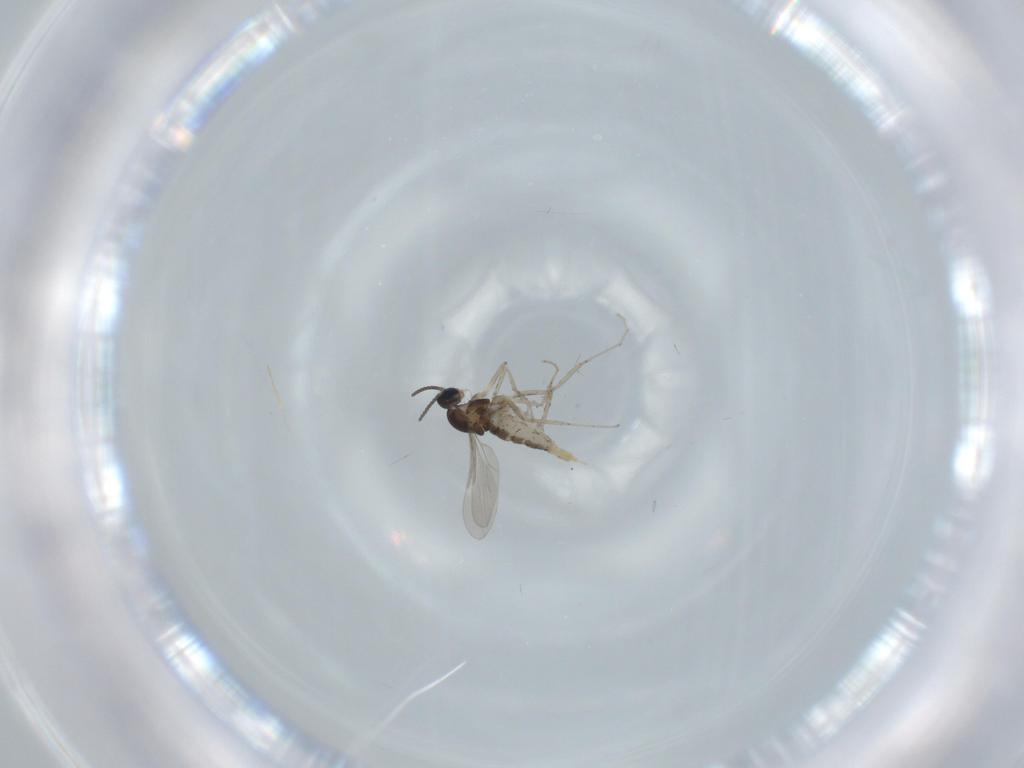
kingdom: Animalia
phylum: Arthropoda
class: Insecta
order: Diptera
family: Cecidomyiidae
